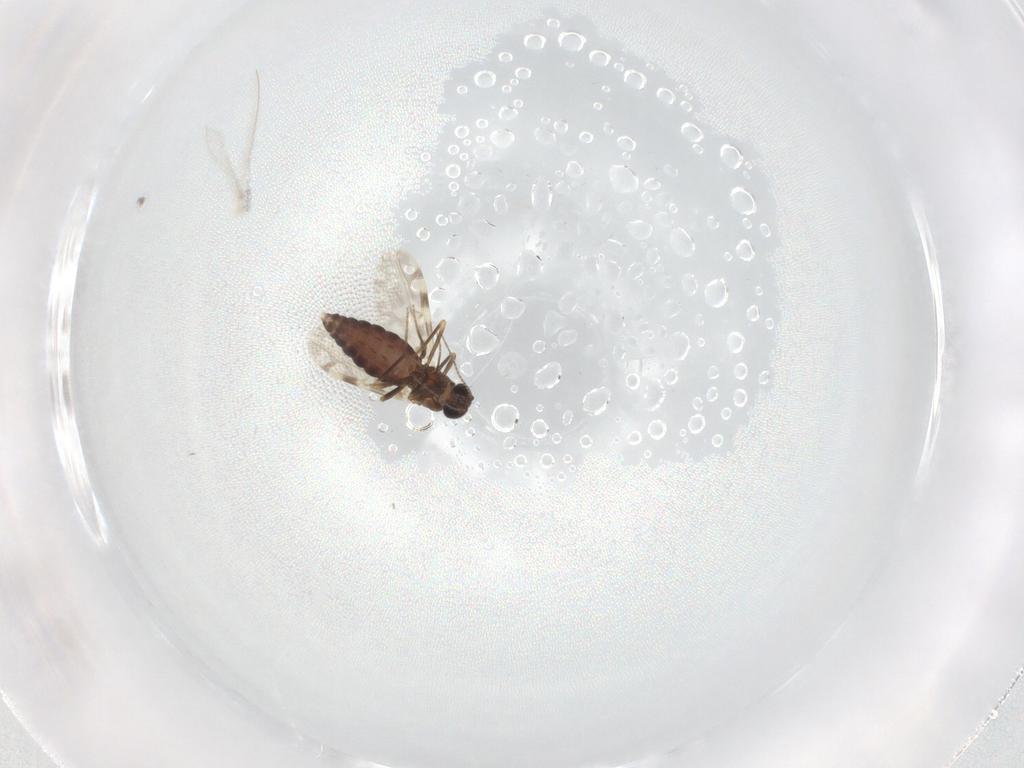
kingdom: Animalia
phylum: Arthropoda
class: Insecta
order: Diptera
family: Ceratopogonidae
